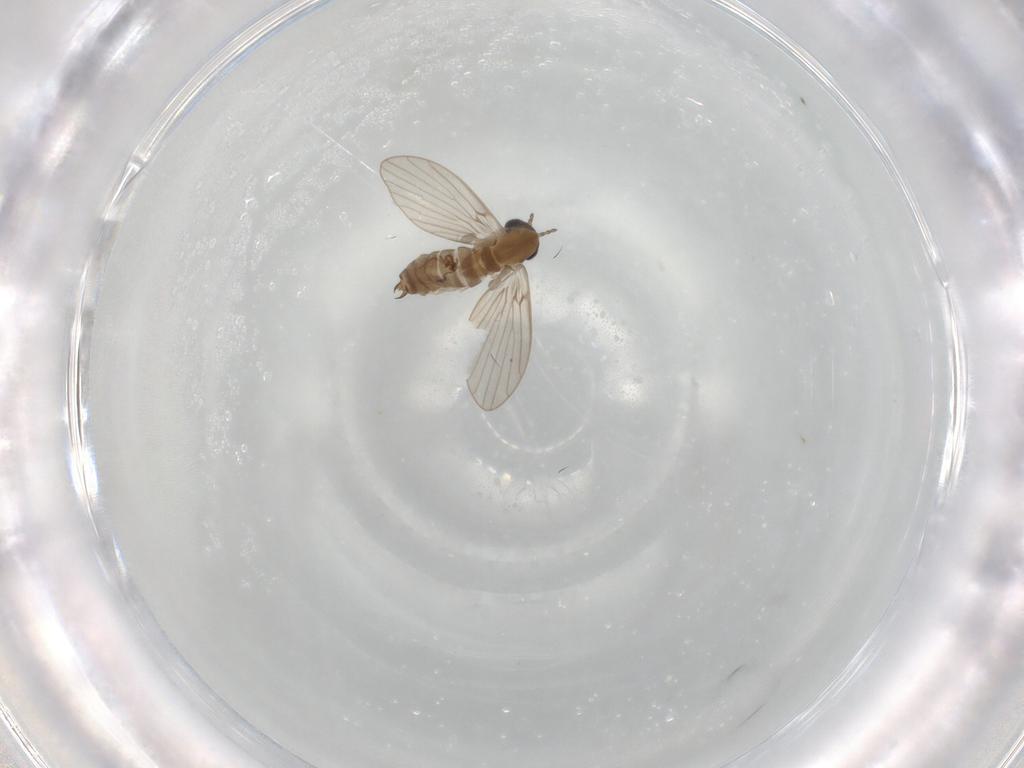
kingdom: Animalia
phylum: Arthropoda
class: Insecta
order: Diptera
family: Psychodidae
